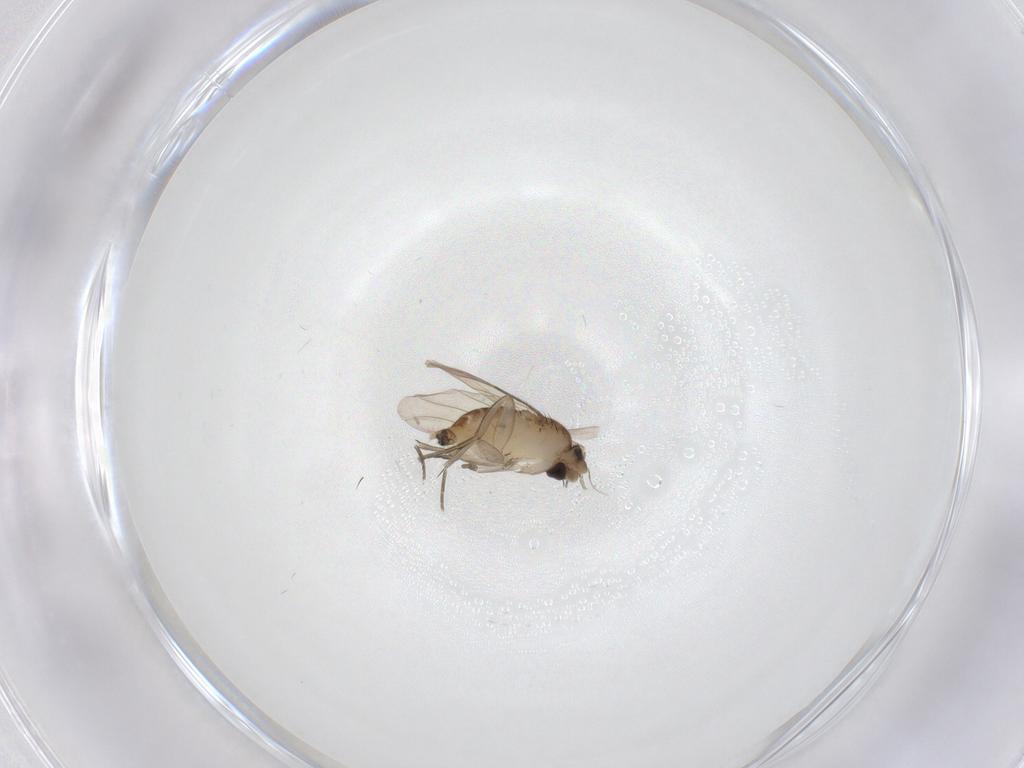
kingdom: Animalia
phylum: Arthropoda
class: Insecta
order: Diptera
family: Phoridae
